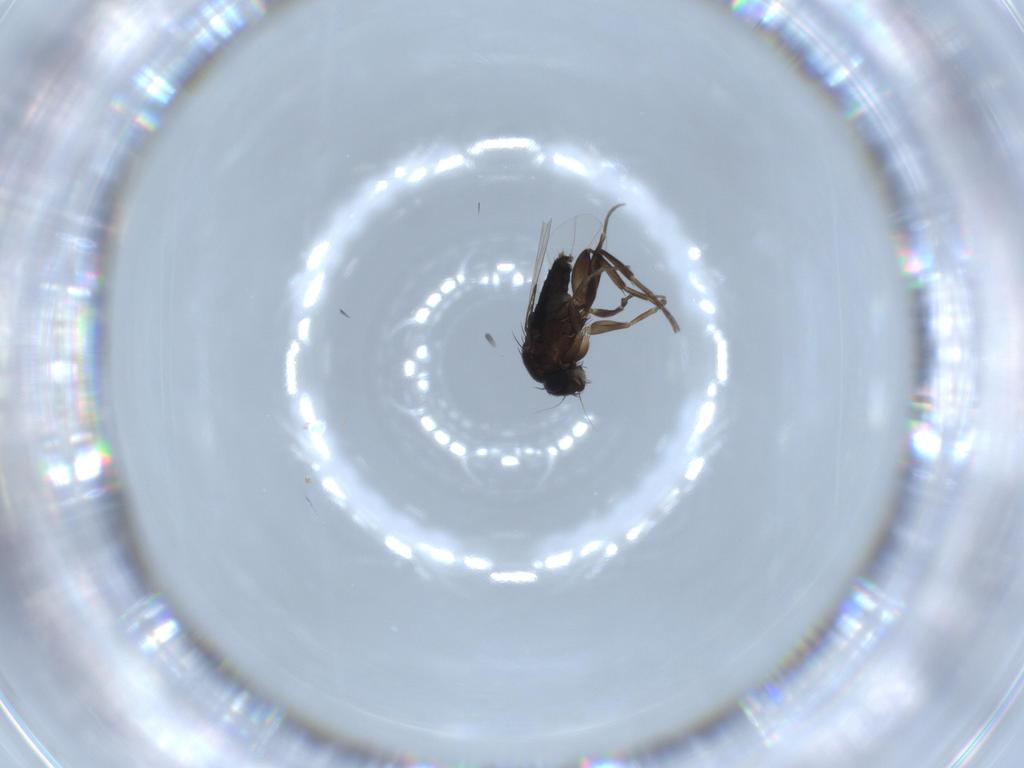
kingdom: Animalia
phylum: Arthropoda
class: Insecta
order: Diptera
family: Phoridae
